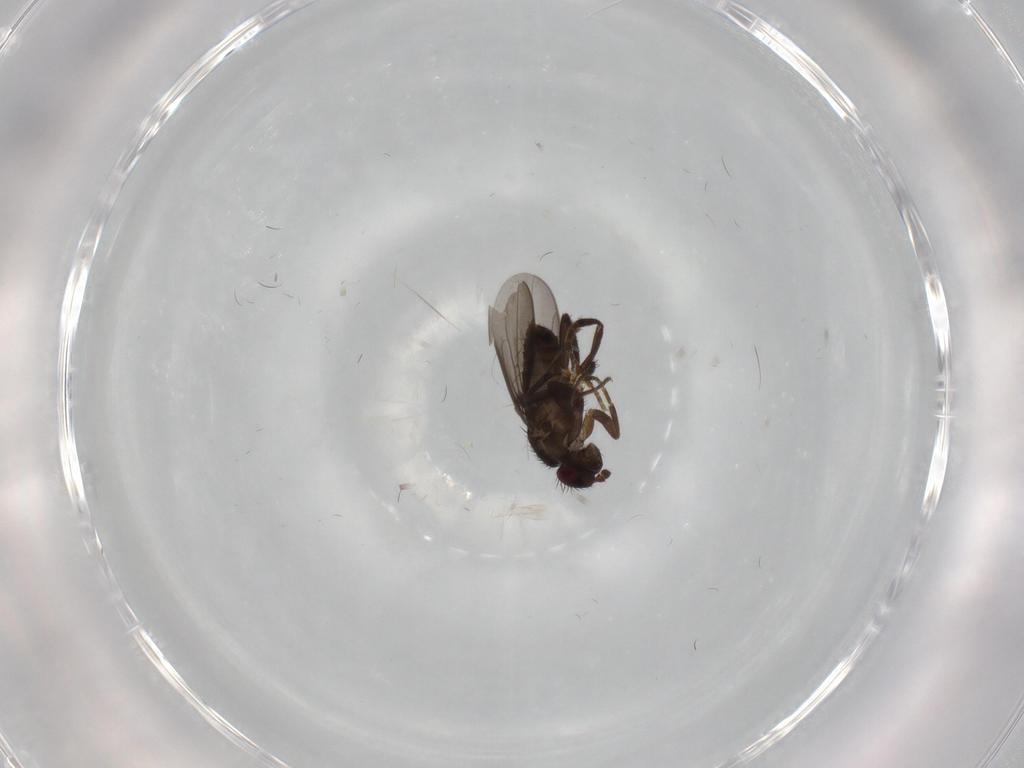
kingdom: Animalia
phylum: Arthropoda
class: Insecta
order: Diptera
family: Sphaeroceridae
